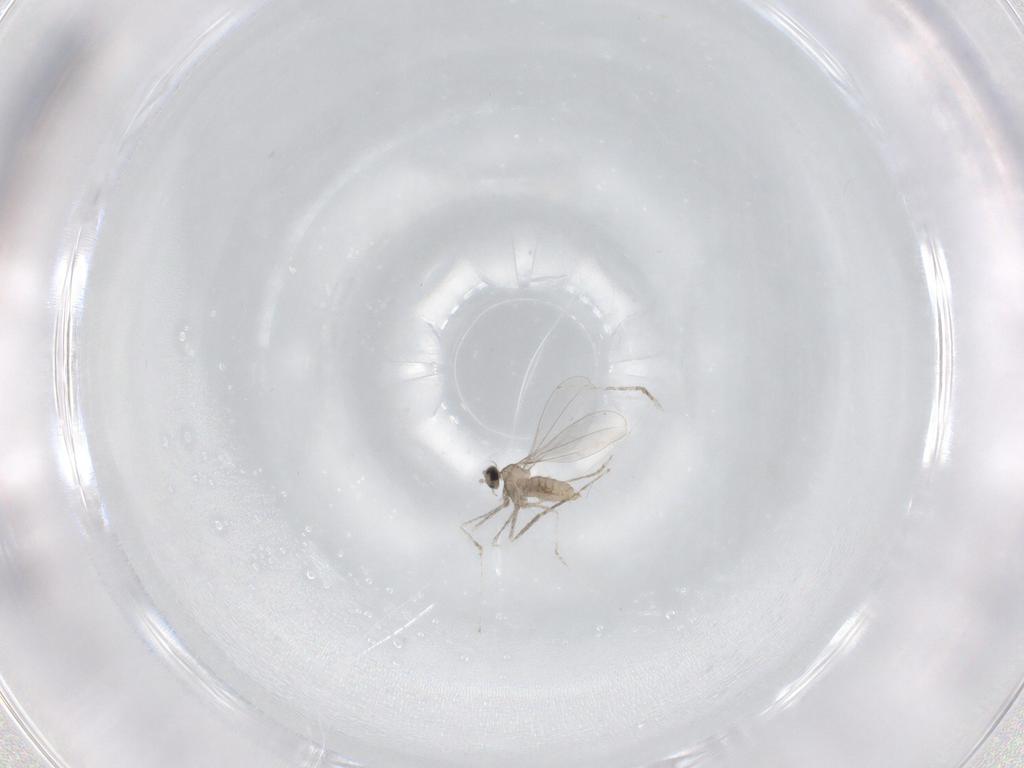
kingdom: Animalia
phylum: Arthropoda
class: Insecta
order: Diptera
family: Cecidomyiidae
